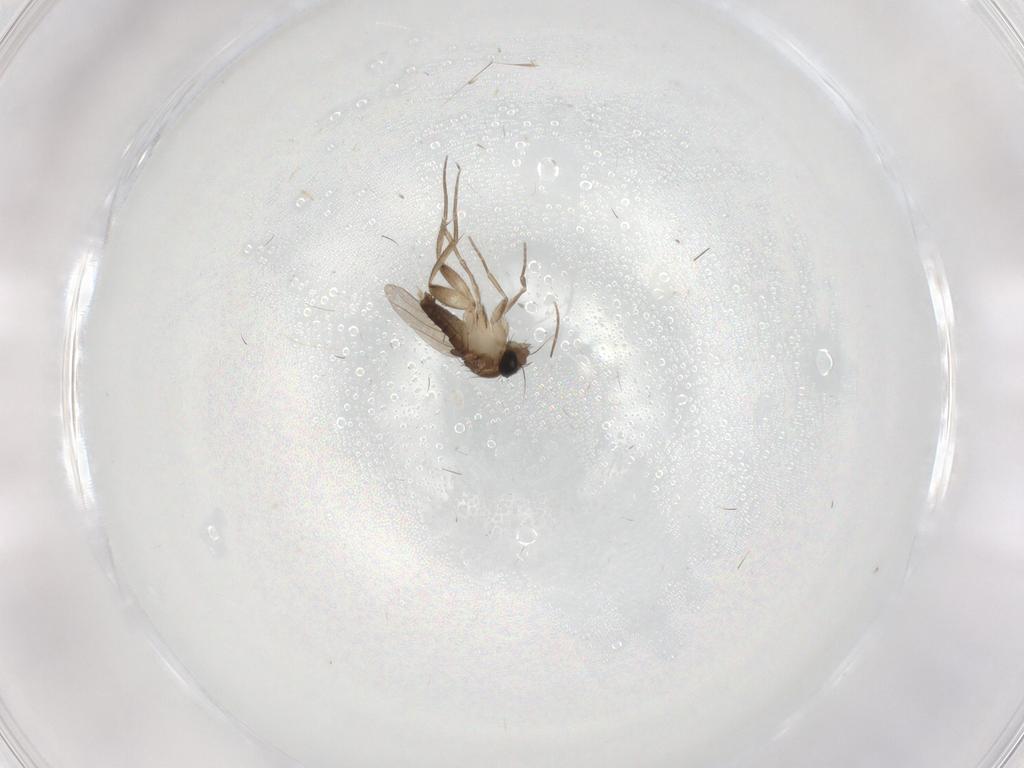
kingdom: Animalia
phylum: Arthropoda
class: Insecta
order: Diptera
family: Phoridae
